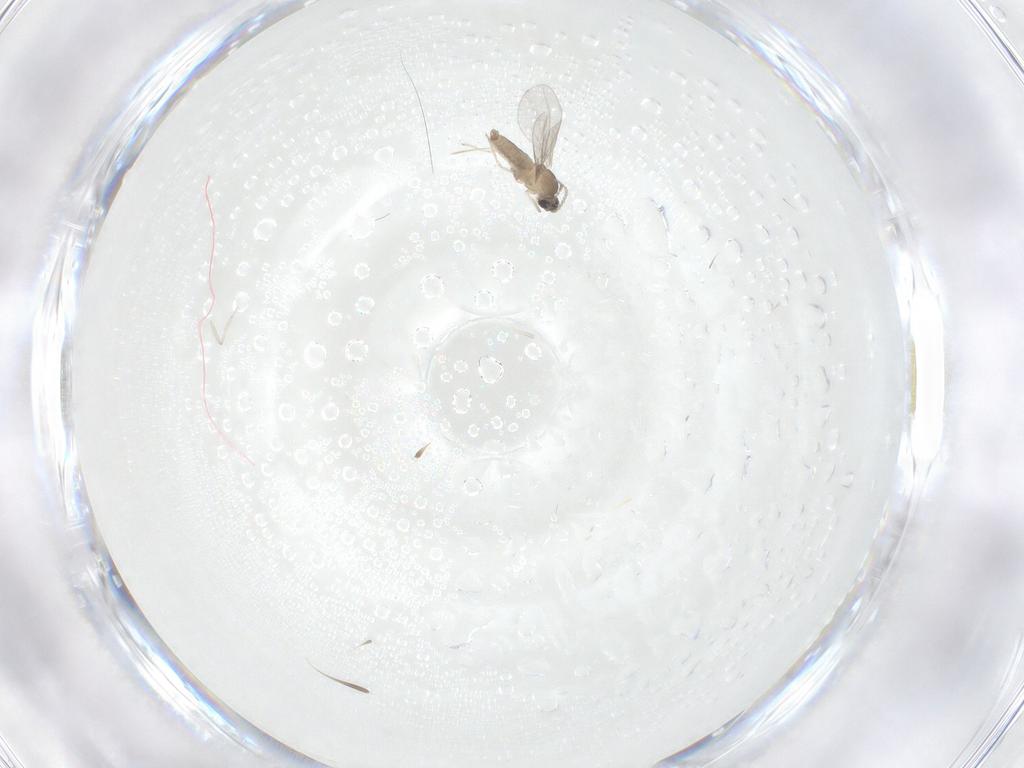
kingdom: Animalia
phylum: Arthropoda
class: Insecta
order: Diptera
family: Cecidomyiidae
